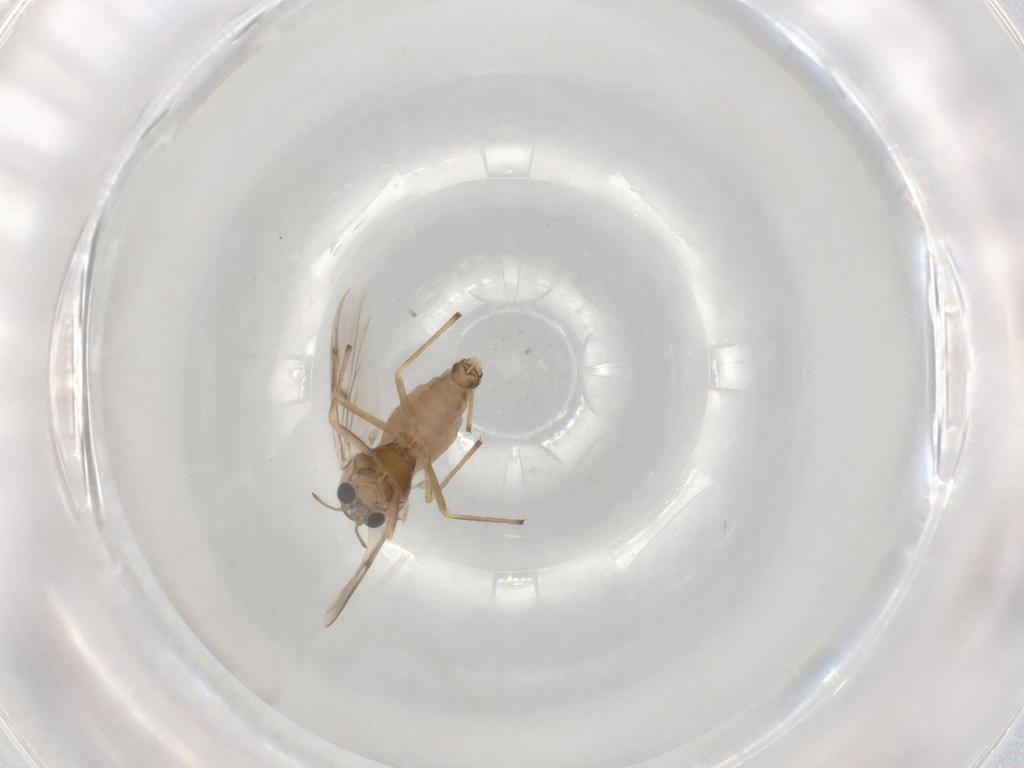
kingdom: Animalia
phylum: Arthropoda
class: Insecta
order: Diptera
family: Chironomidae
